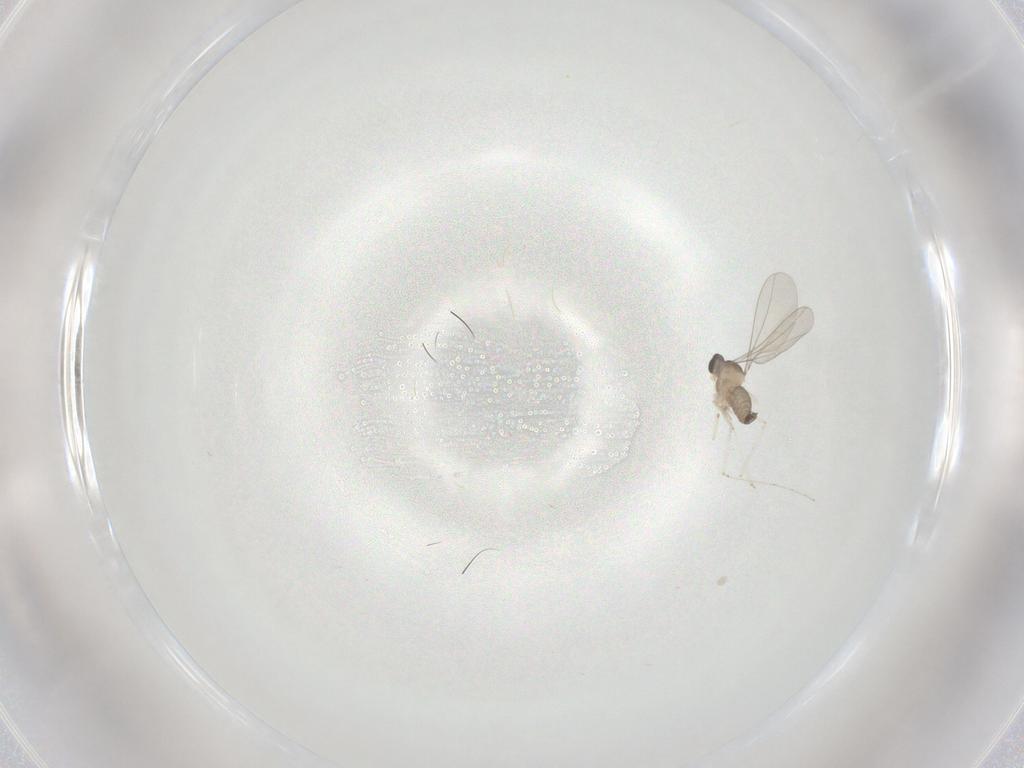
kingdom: Animalia
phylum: Arthropoda
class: Insecta
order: Diptera
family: Cecidomyiidae
